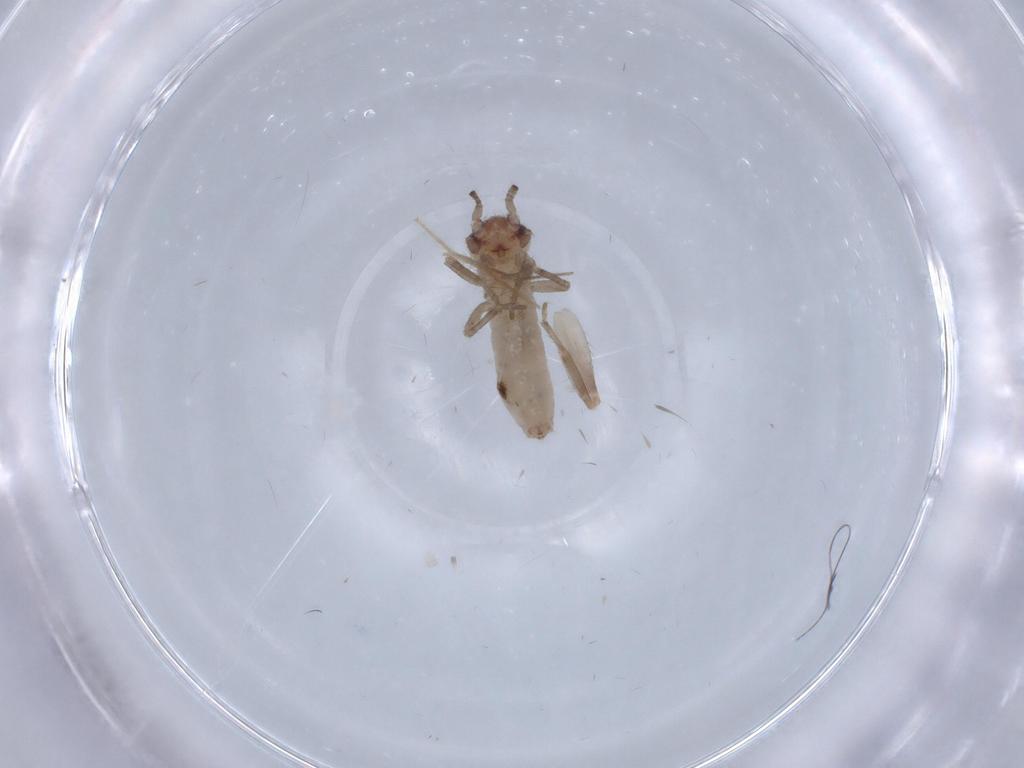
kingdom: Animalia
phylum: Arthropoda
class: Insecta
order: Orthoptera
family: Mogoplistidae
